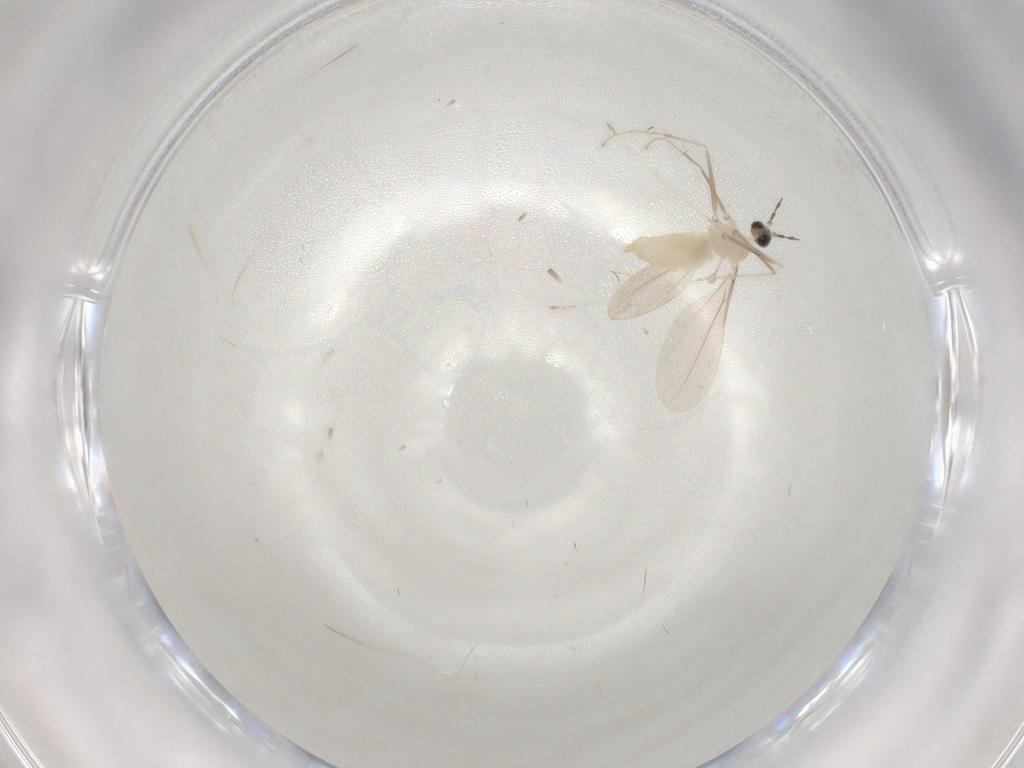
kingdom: Animalia
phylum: Arthropoda
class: Insecta
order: Diptera
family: Cecidomyiidae
